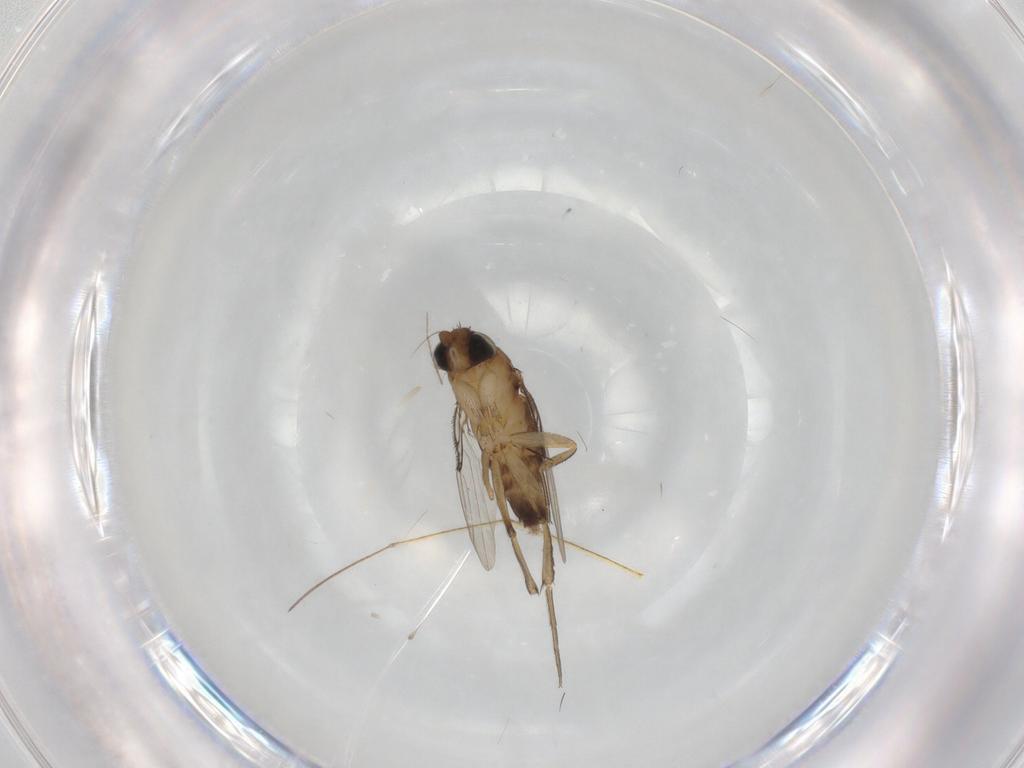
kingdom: Animalia
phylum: Arthropoda
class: Insecta
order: Diptera
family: Phoridae
